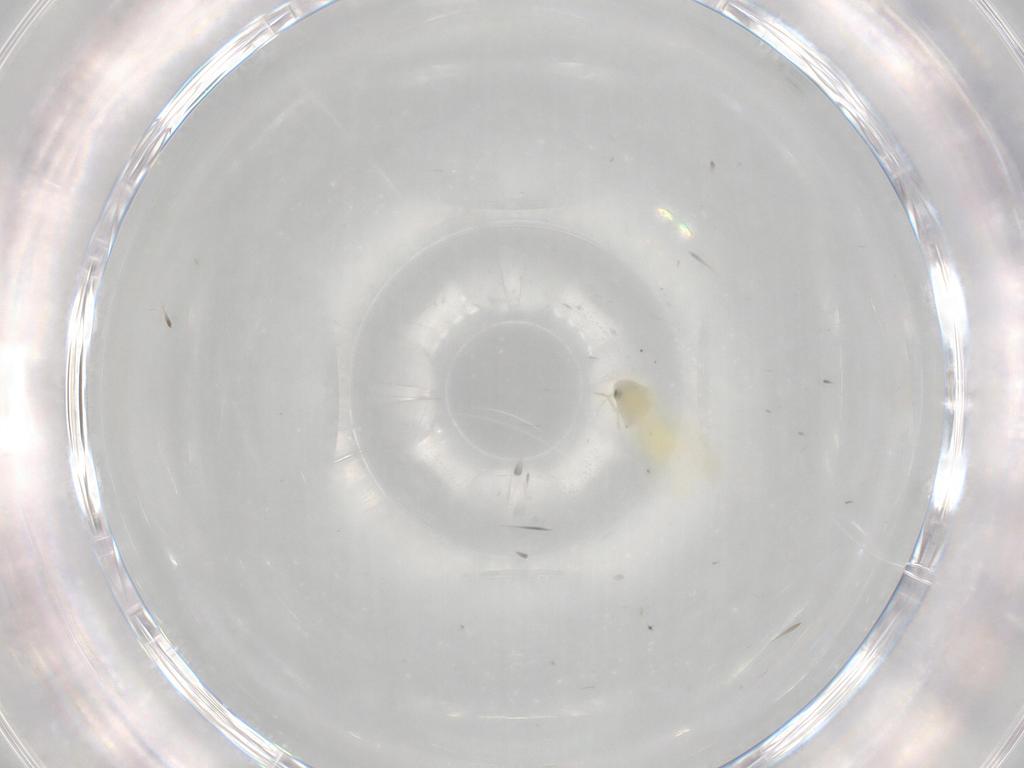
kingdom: Animalia
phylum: Arthropoda
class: Insecta
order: Hemiptera
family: Aleyrodidae
